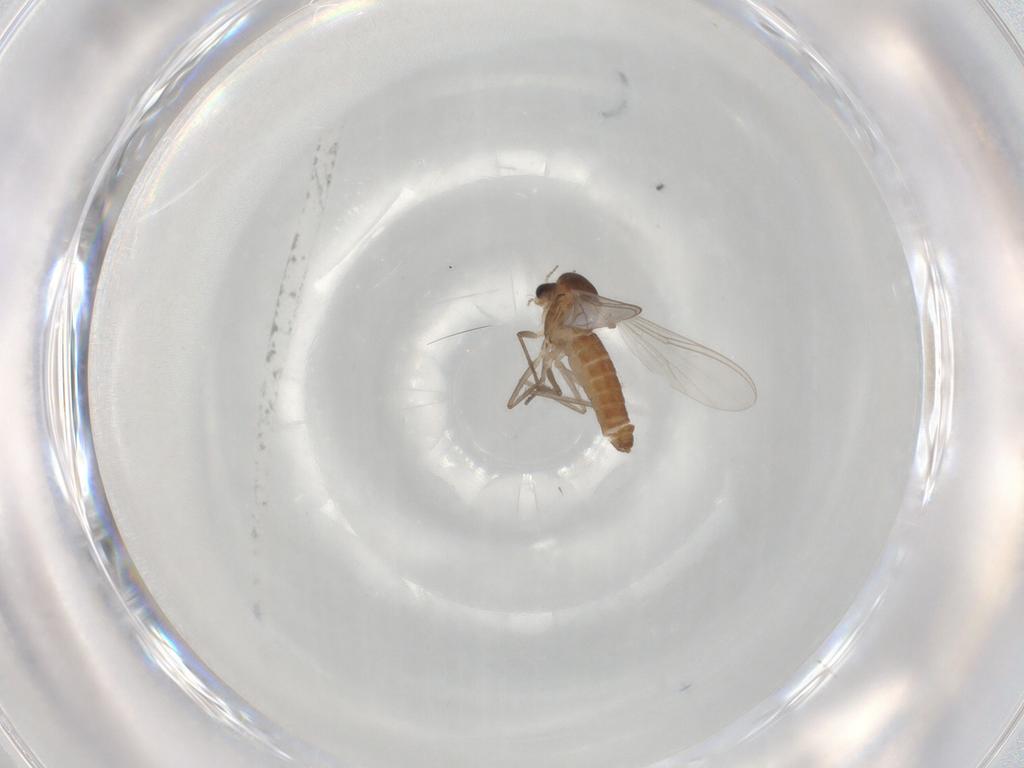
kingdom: Animalia
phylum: Arthropoda
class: Insecta
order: Diptera
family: Chironomidae
